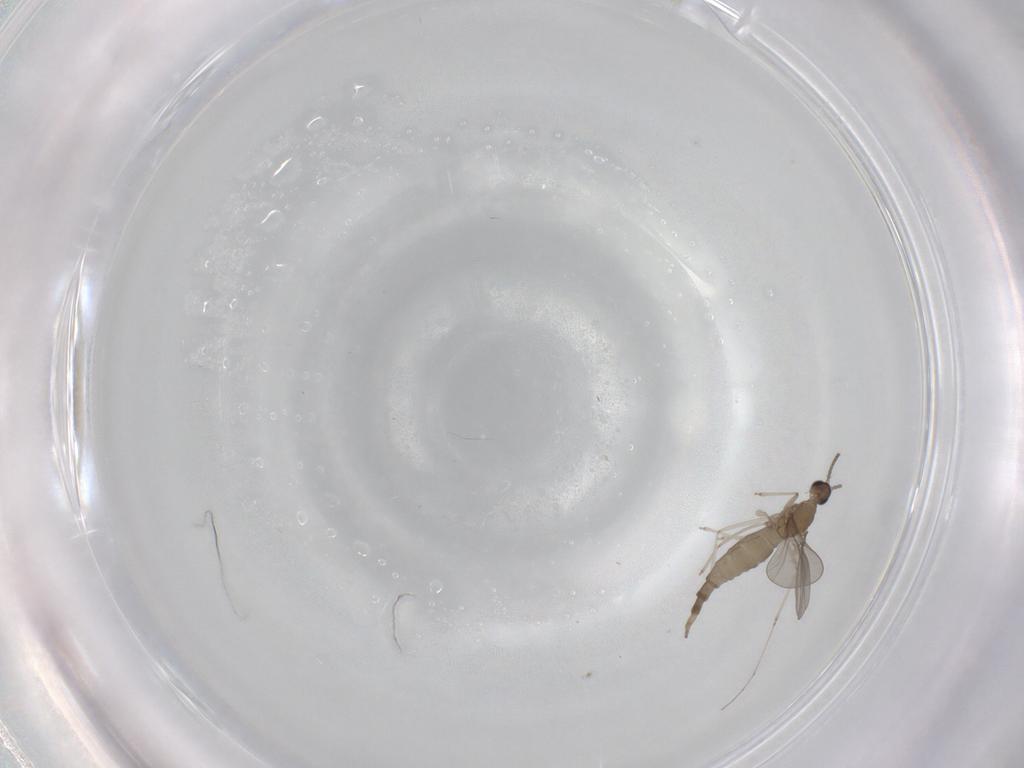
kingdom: Animalia
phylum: Arthropoda
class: Insecta
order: Diptera
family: Cecidomyiidae
